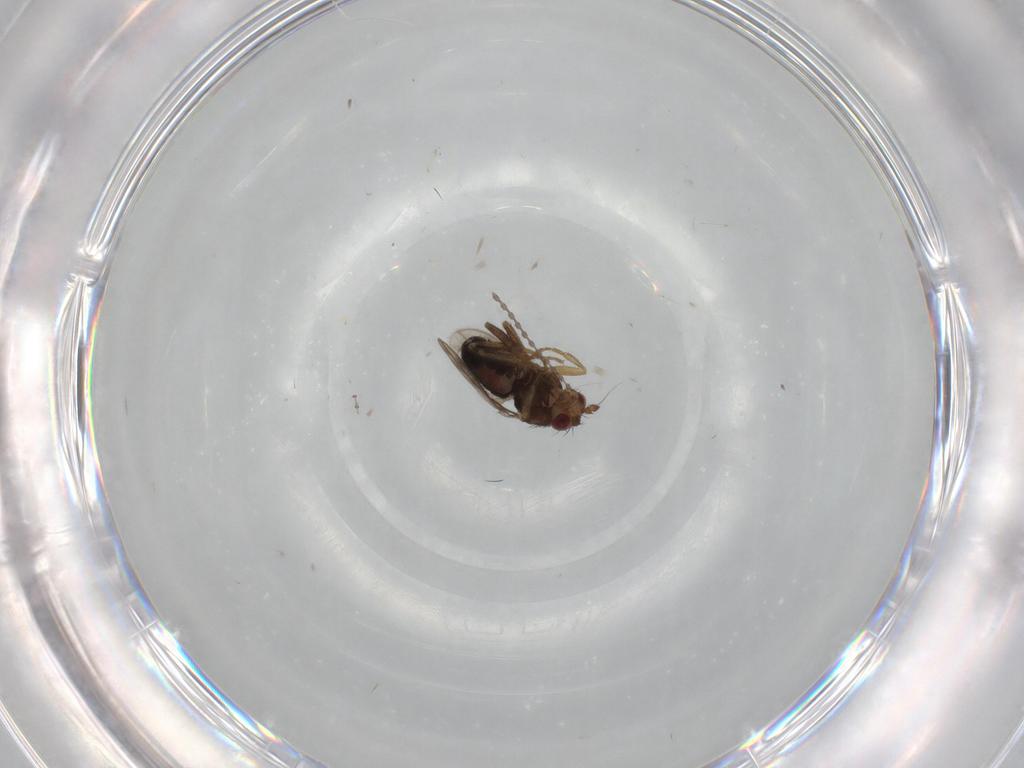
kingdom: Animalia
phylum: Arthropoda
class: Insecta
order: Diptera
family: Sphaeroceridae
